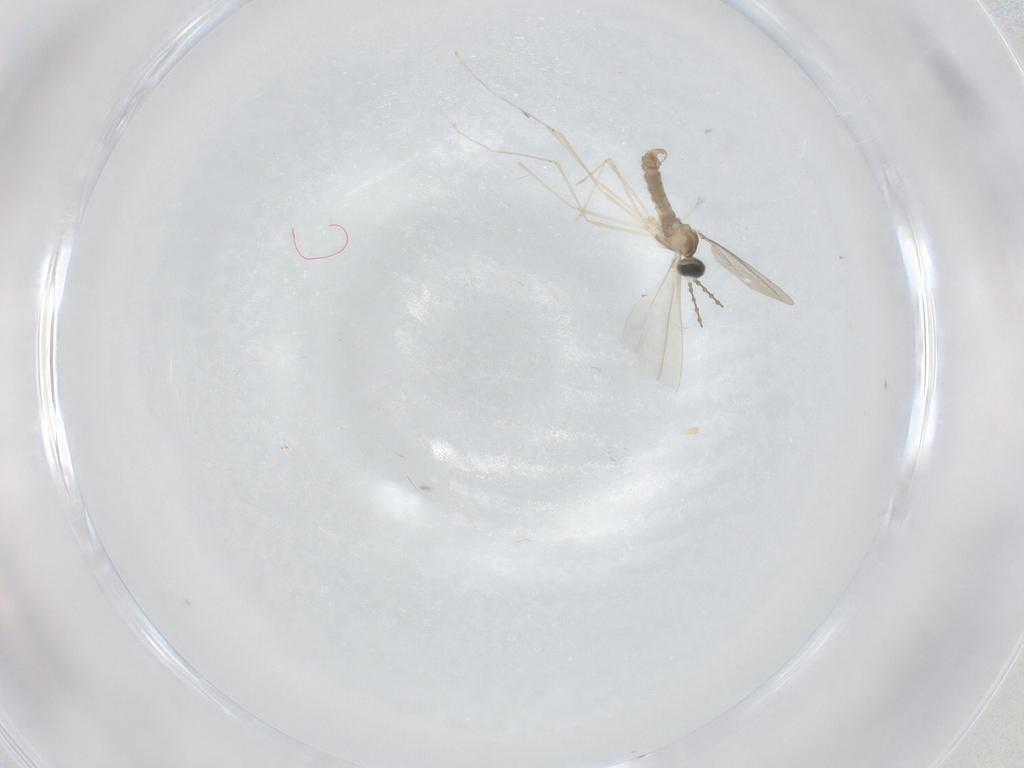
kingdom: Animalia
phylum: Arthropoda
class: Insecta
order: Diptera
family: Cecidomyiidae
